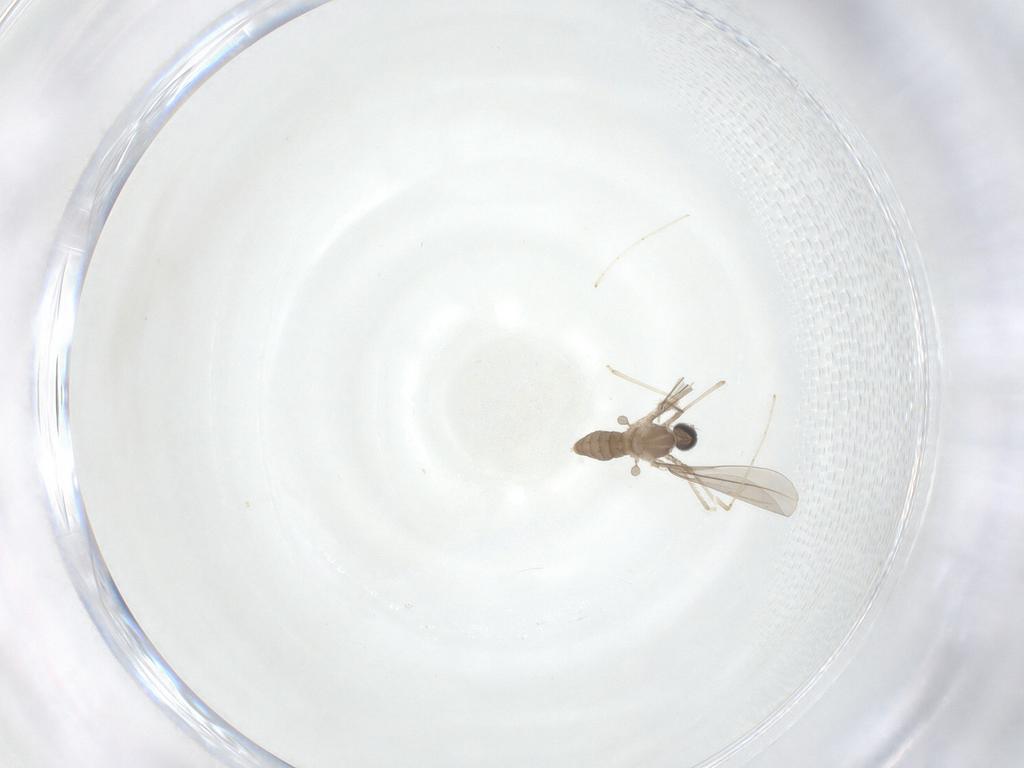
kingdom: Animalia
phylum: Arthropoda
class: Insecta
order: Diptera
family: Cecidomyiidae
